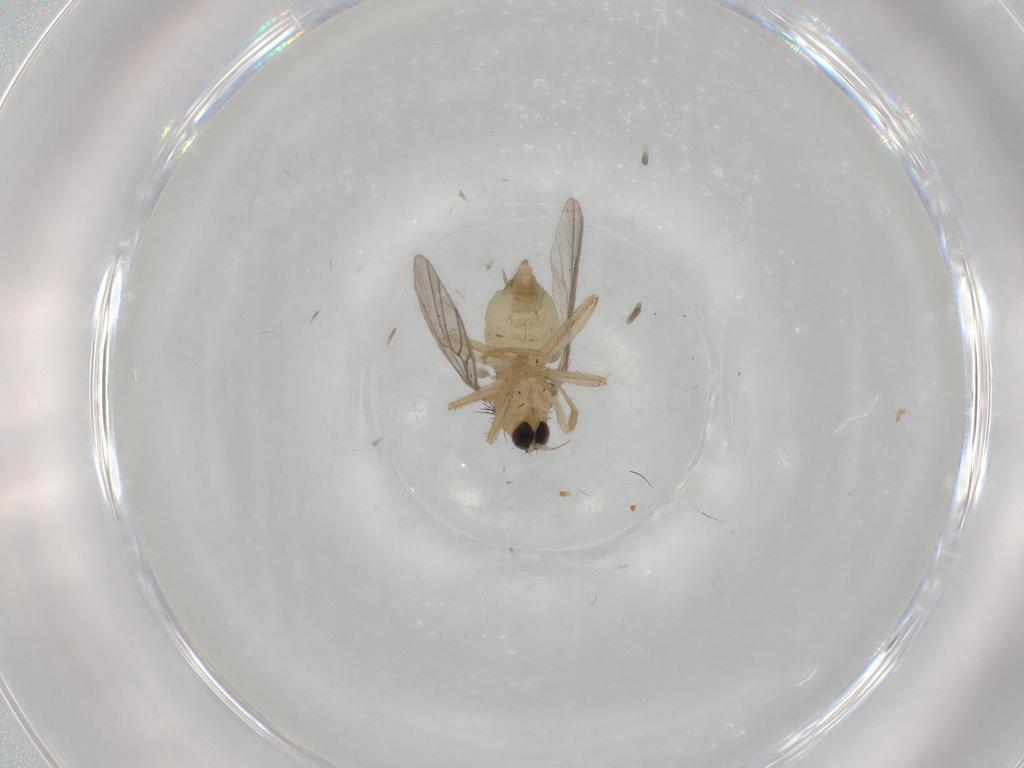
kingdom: Animalia
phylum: Arthropoda
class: Insecta
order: Diptera
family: Hybotidae
